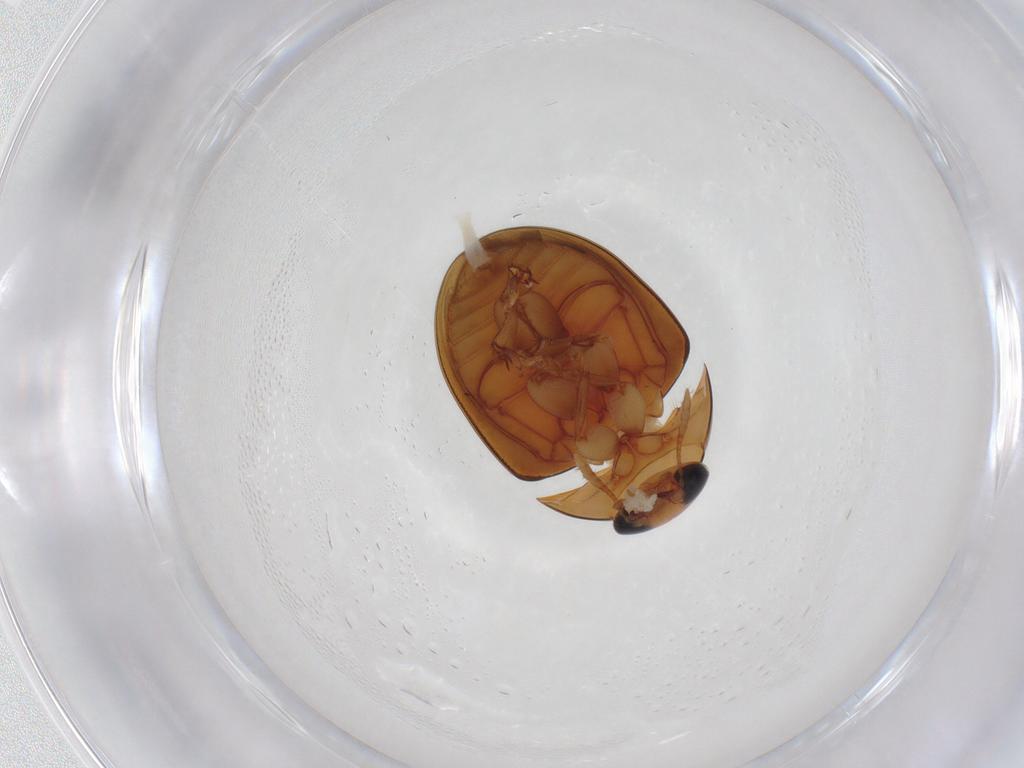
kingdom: Animalia
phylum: Arthropoda
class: Insecta
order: Coleoptera
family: Phalacridae
